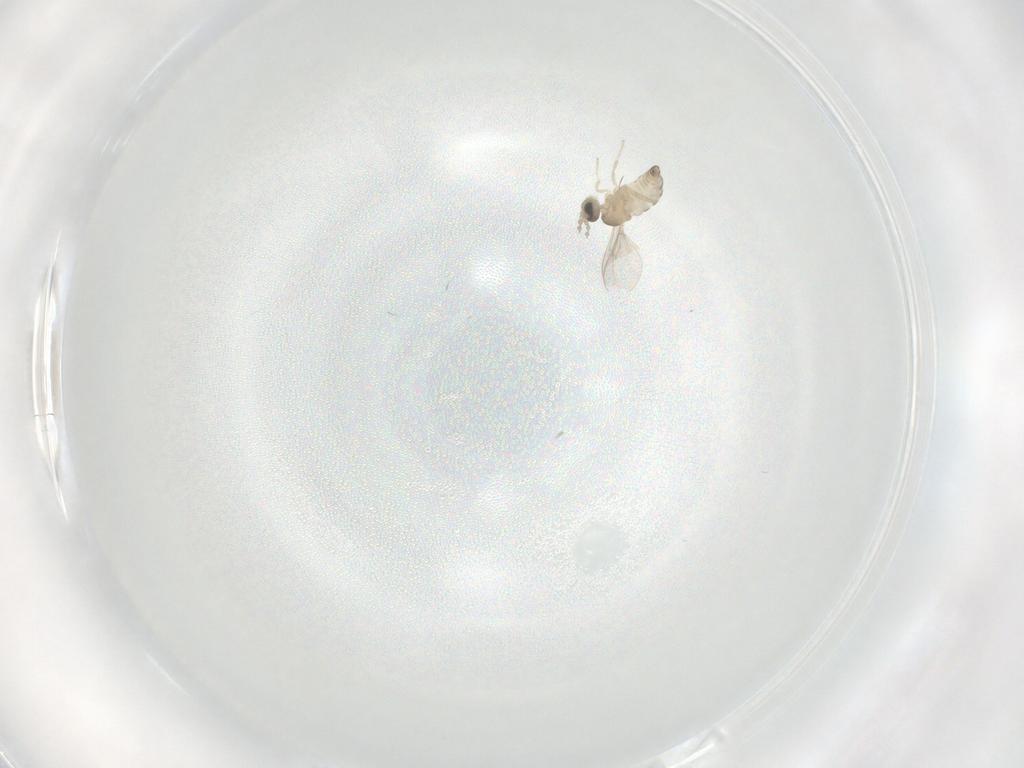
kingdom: Animalia
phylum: Arthropoda
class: Insecta
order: Diptera
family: Cecidomyiidae
